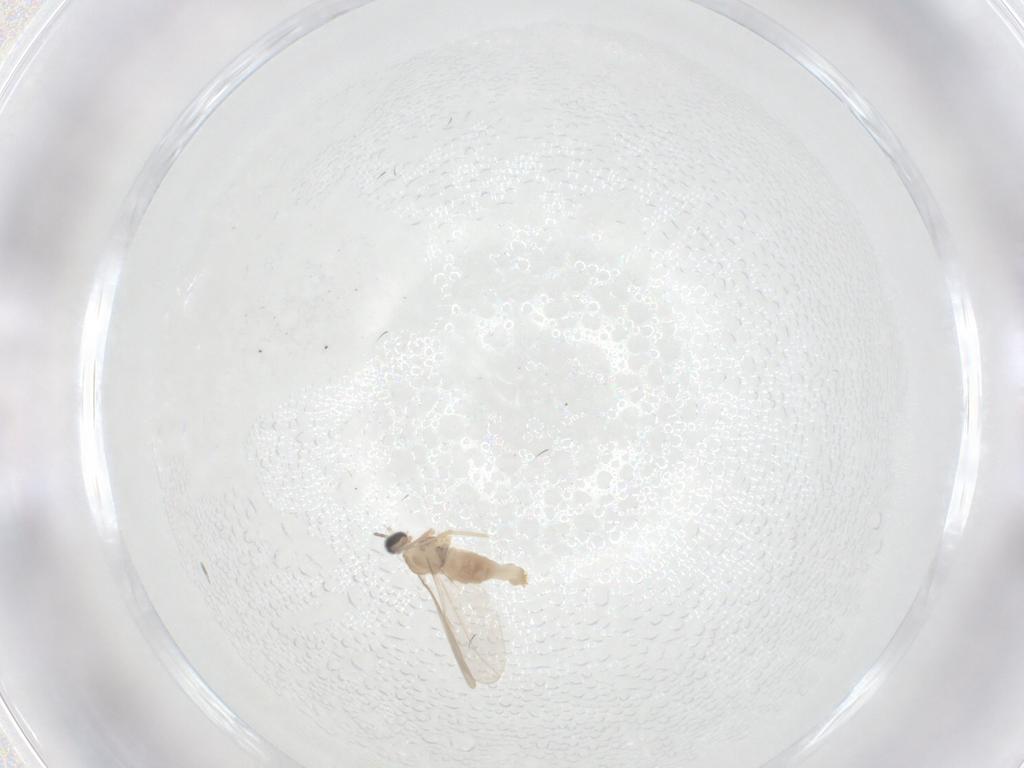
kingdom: Animalia
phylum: Arthropoda
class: Insecta
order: Diptera
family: Cecidomyiidae
